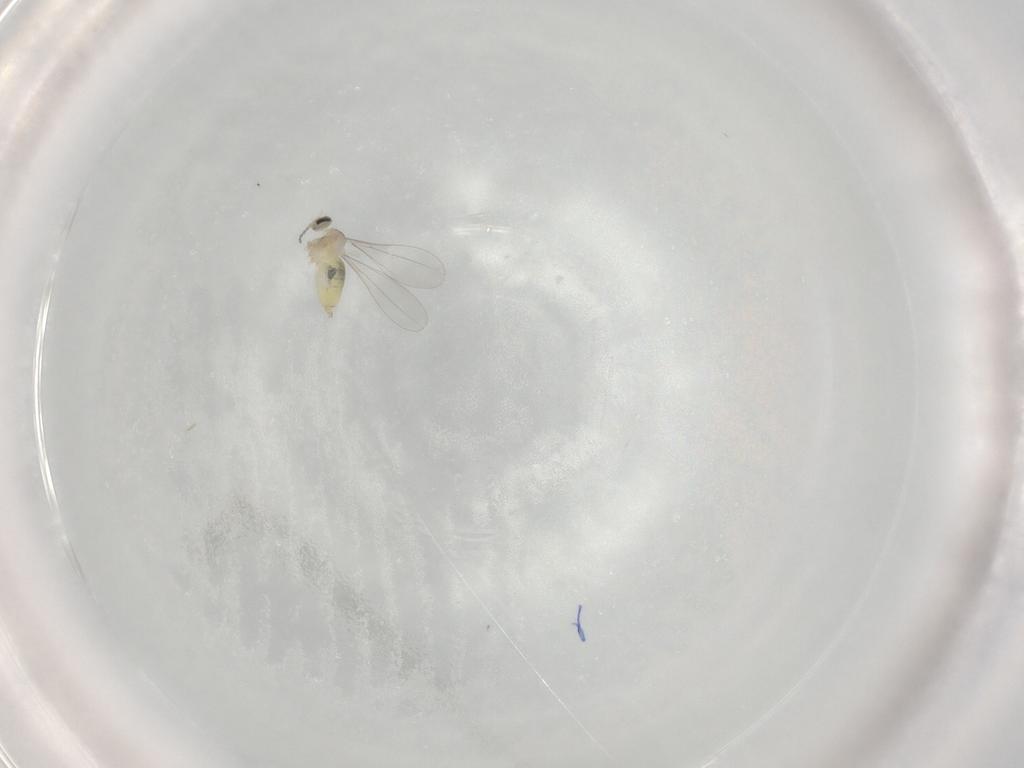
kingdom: Animalia
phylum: Arthropoda
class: Insecta
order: Diptera
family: Cecidomyiidae
